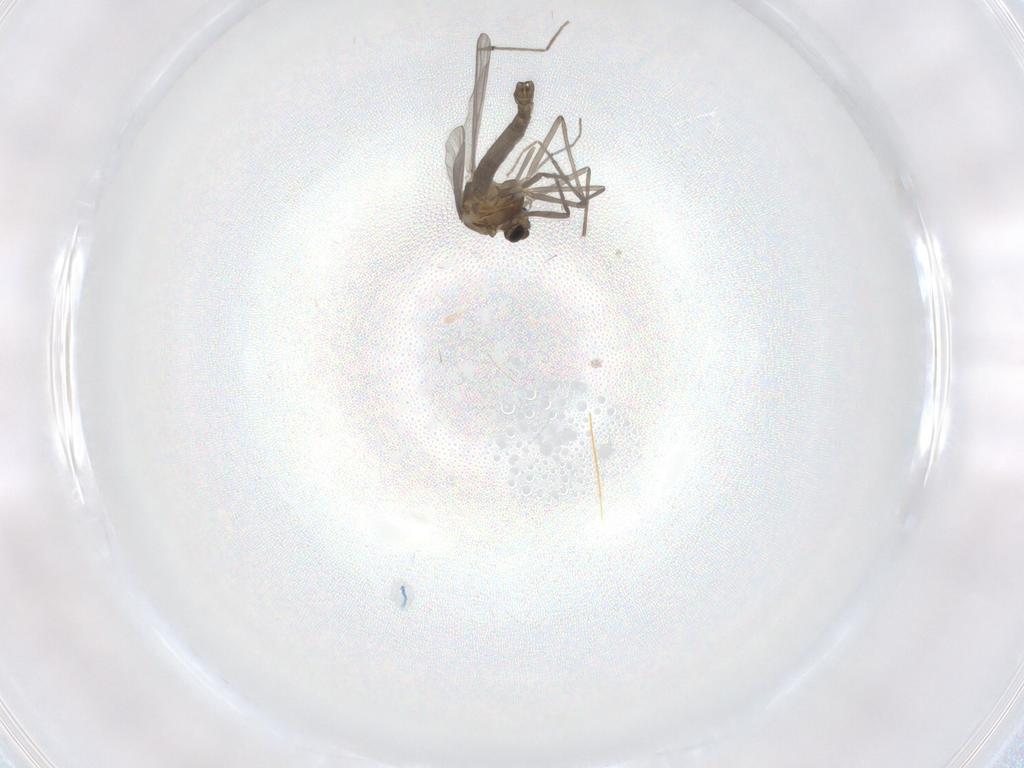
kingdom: Animalia
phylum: Arthropoda
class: Insecta
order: Diptera
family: Chironomidae
